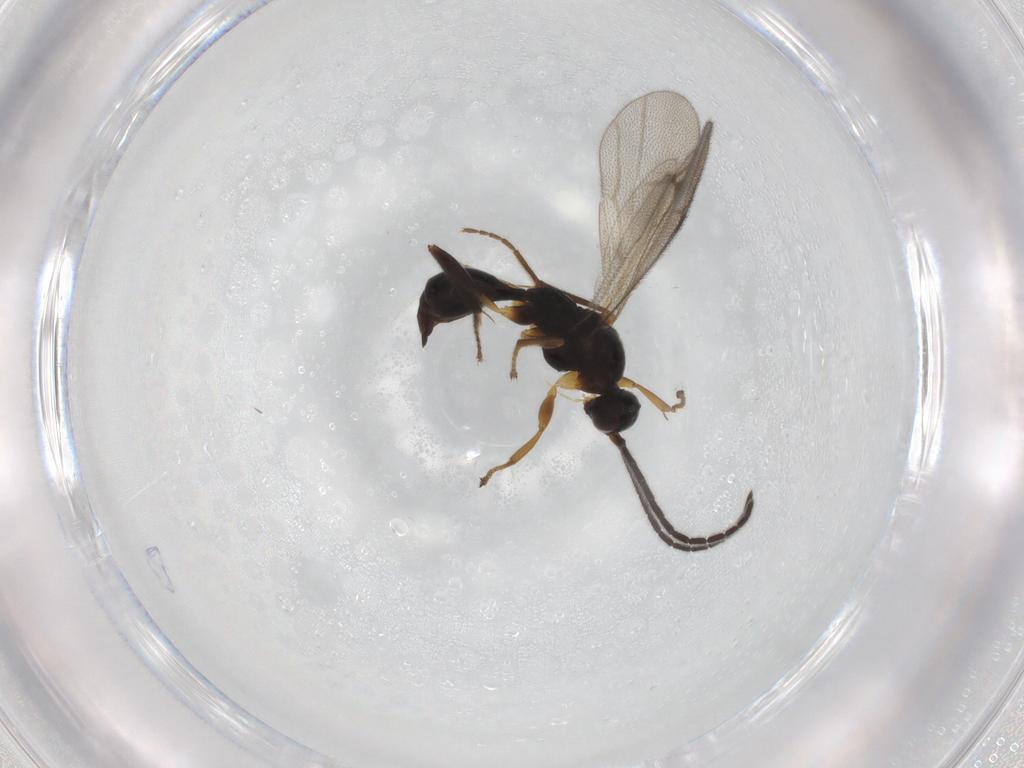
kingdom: Animalia
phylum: Arthropoda
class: Insecta
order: Hymenoptera
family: Proctotrupidae
